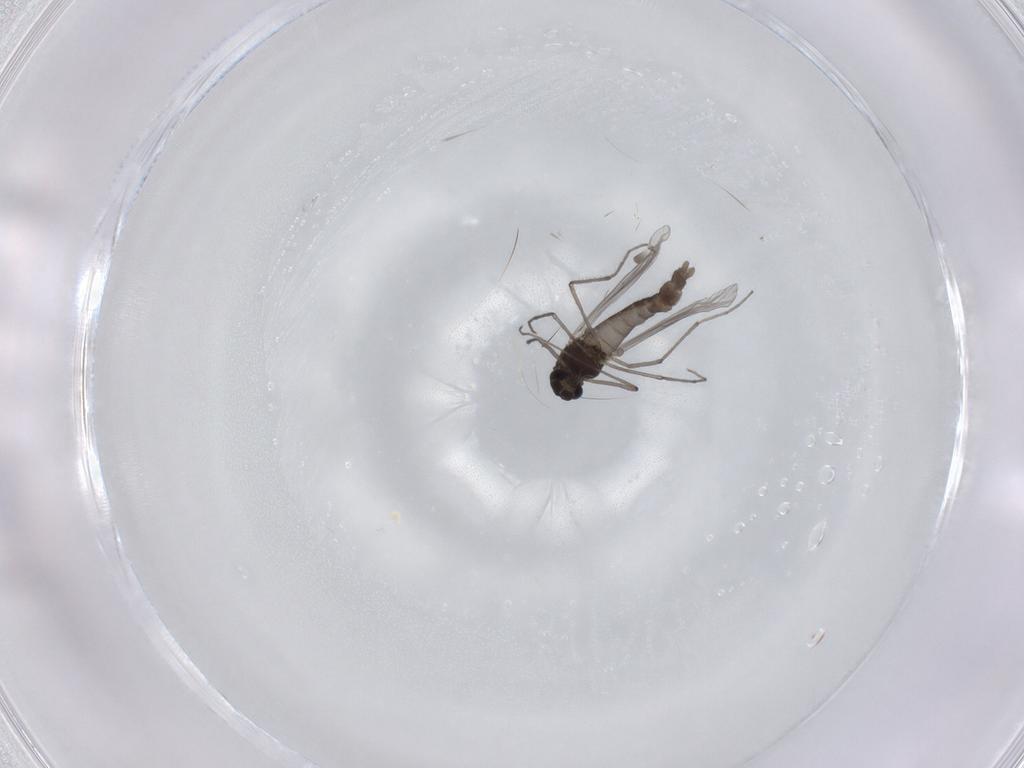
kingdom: Animalia
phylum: Arthropoda
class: Insecta
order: Diptera
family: Chironomidae
